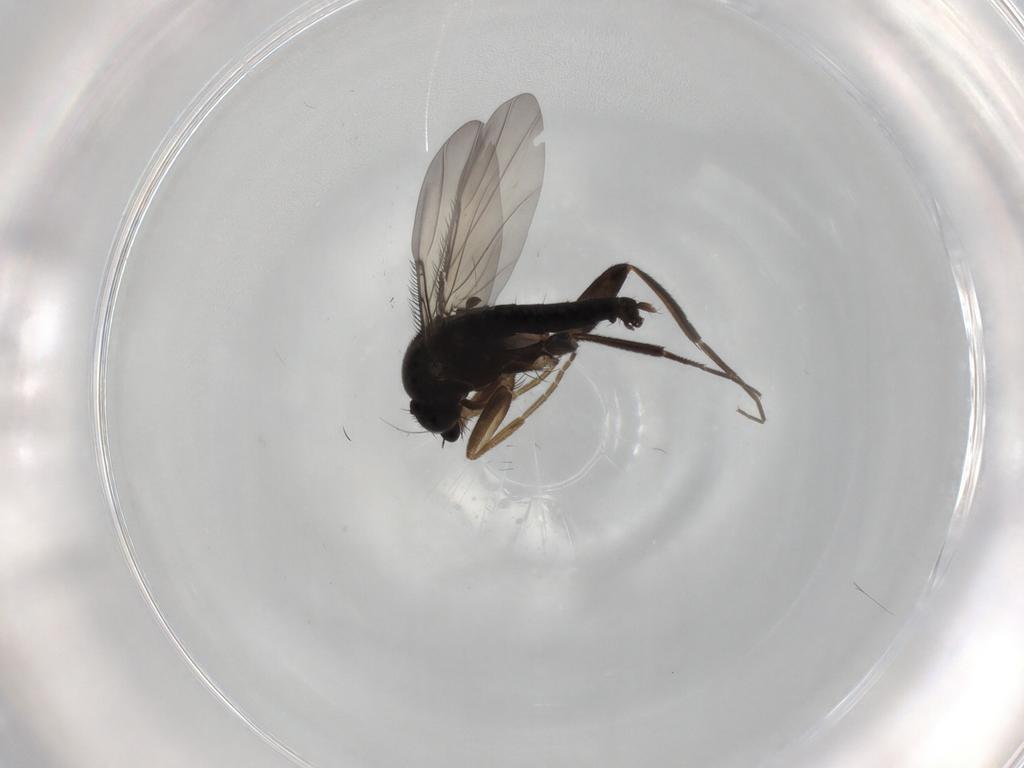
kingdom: Animalia
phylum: Arthropoda
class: Insecta
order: Diptera
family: Phoridae
